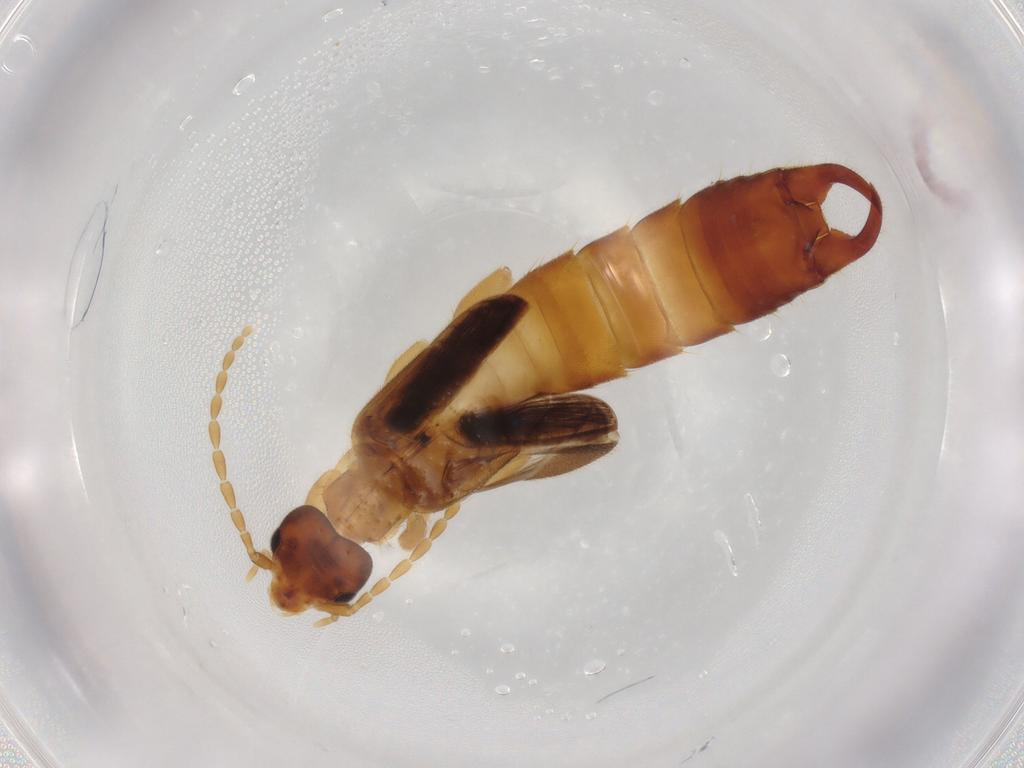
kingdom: Animalia
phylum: Arthropoda
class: Insecta
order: Dermaptera
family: Spongiphoridae
